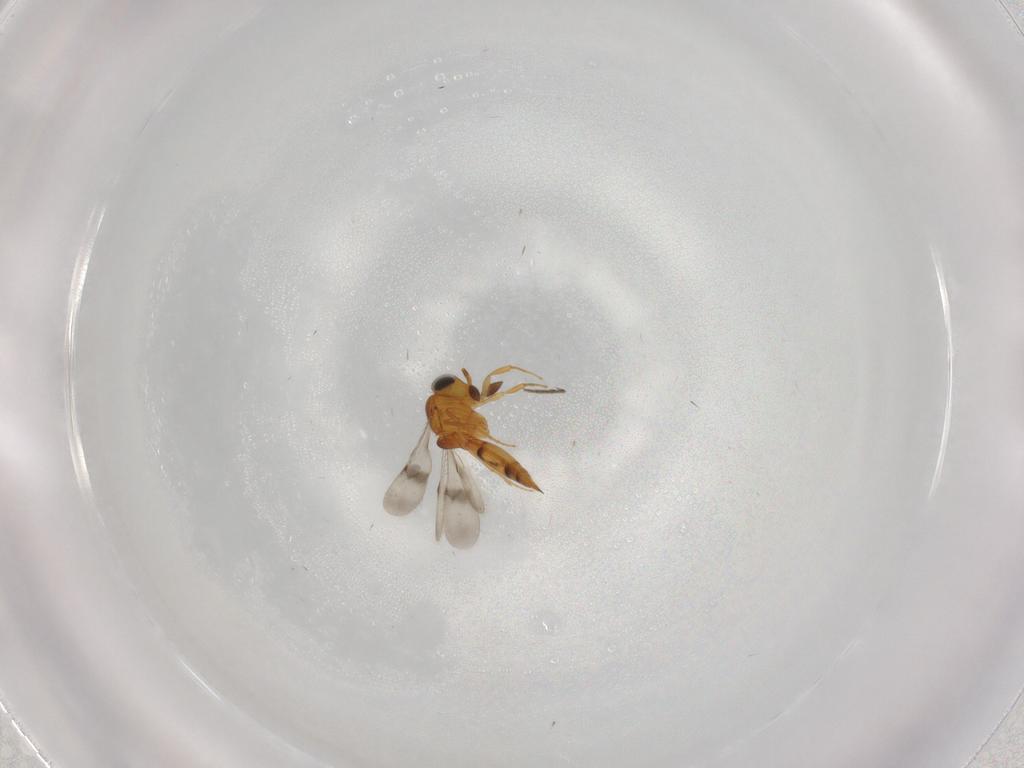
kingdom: Animalia
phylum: Arthropoda
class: Insecta
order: Hymenoptera
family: Scelionidae
